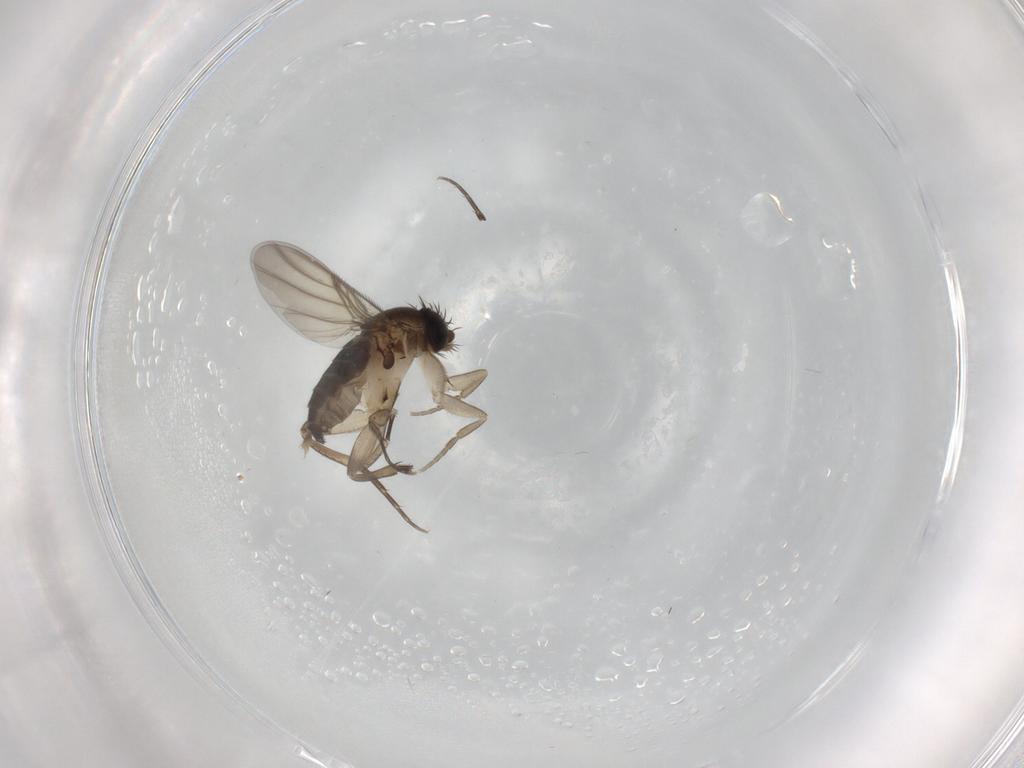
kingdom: Animalia
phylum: Arthropoda
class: Insecta
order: Diptera
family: Phoridae
